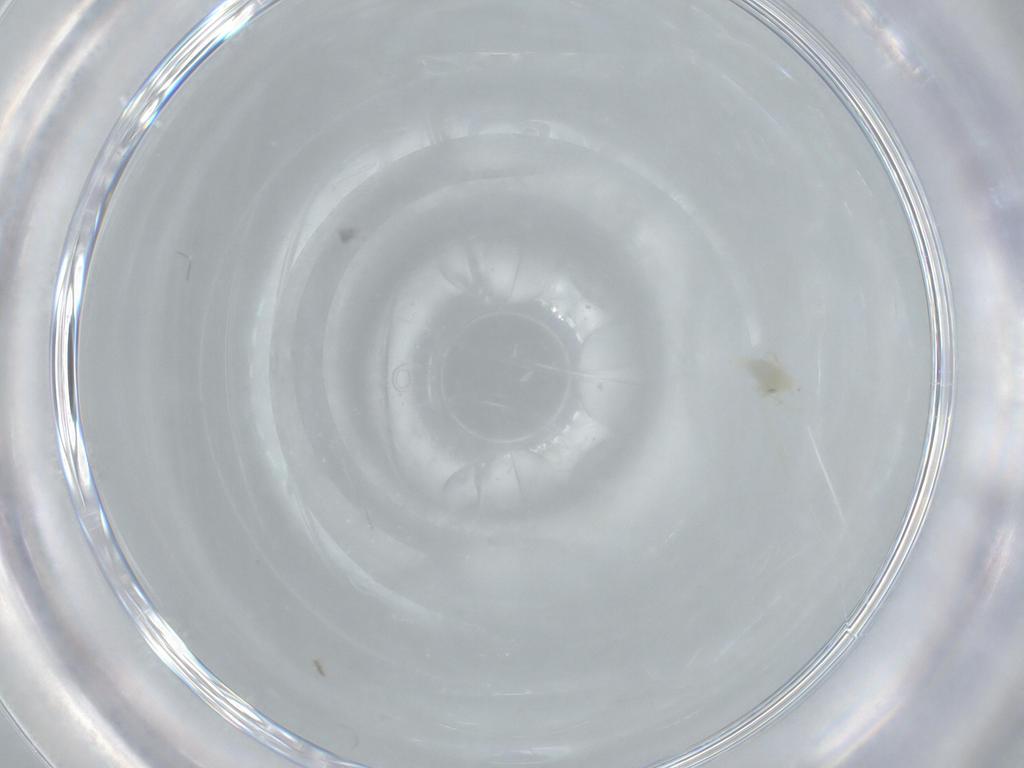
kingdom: Animalia
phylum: Arthropoda
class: Insecta
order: Hemiptera
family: Aleyrodidae
